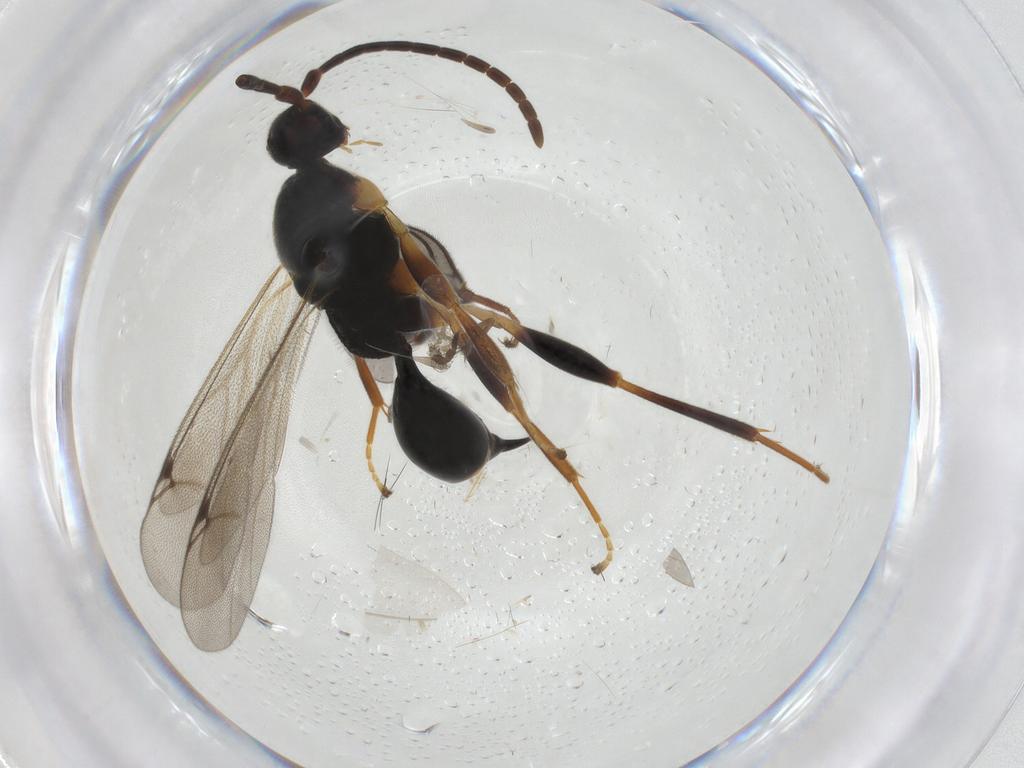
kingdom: Animalia
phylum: Arthropoda
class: Insecta
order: Hymenoptera
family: Proctotrupidae
